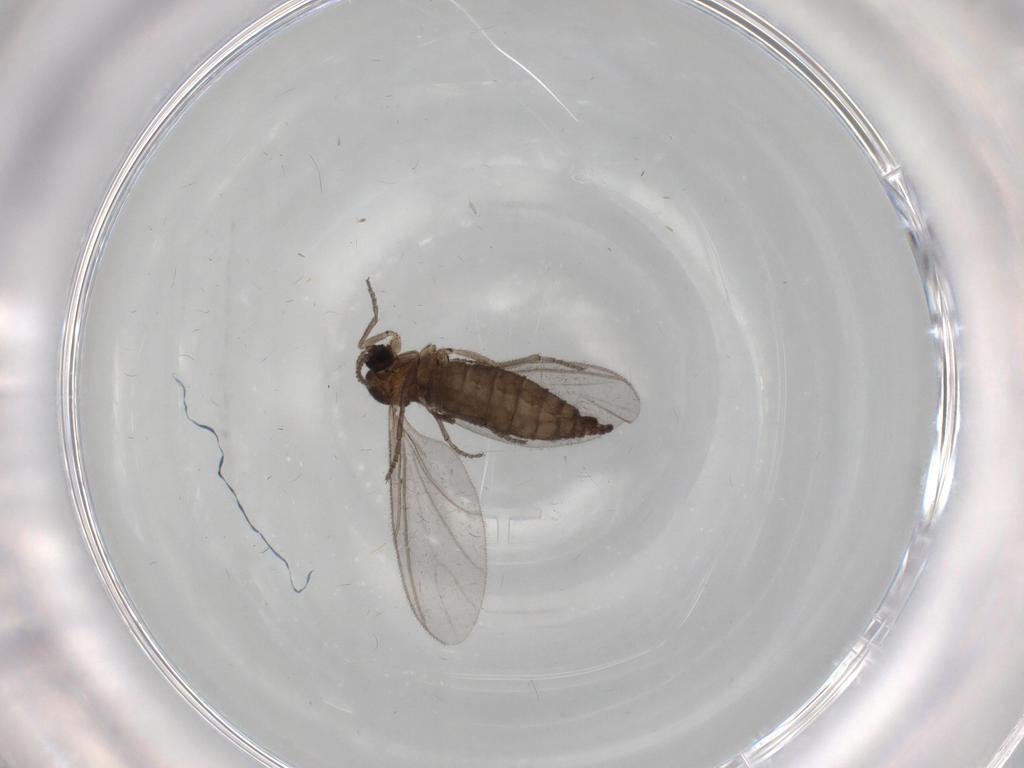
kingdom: Animalia
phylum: Arthropoda
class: Insecta
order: Diptera
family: Sciaridae
